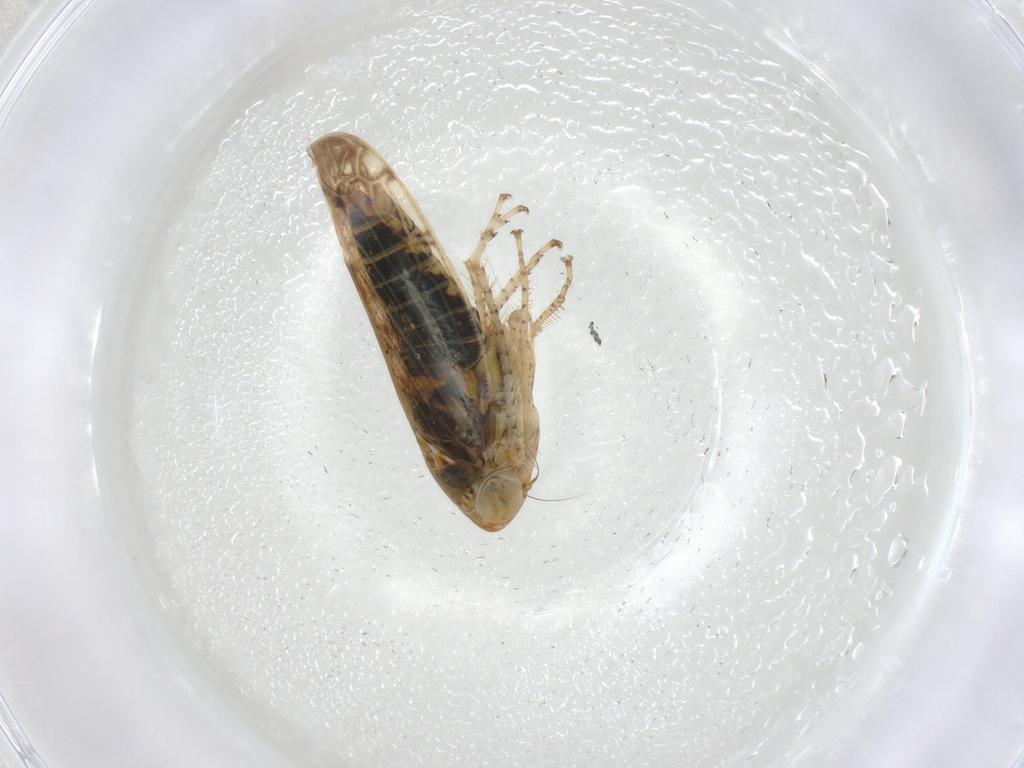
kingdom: Animalia
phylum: Arthropoda
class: Insecta
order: Hemiptera
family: Cicadellidae
